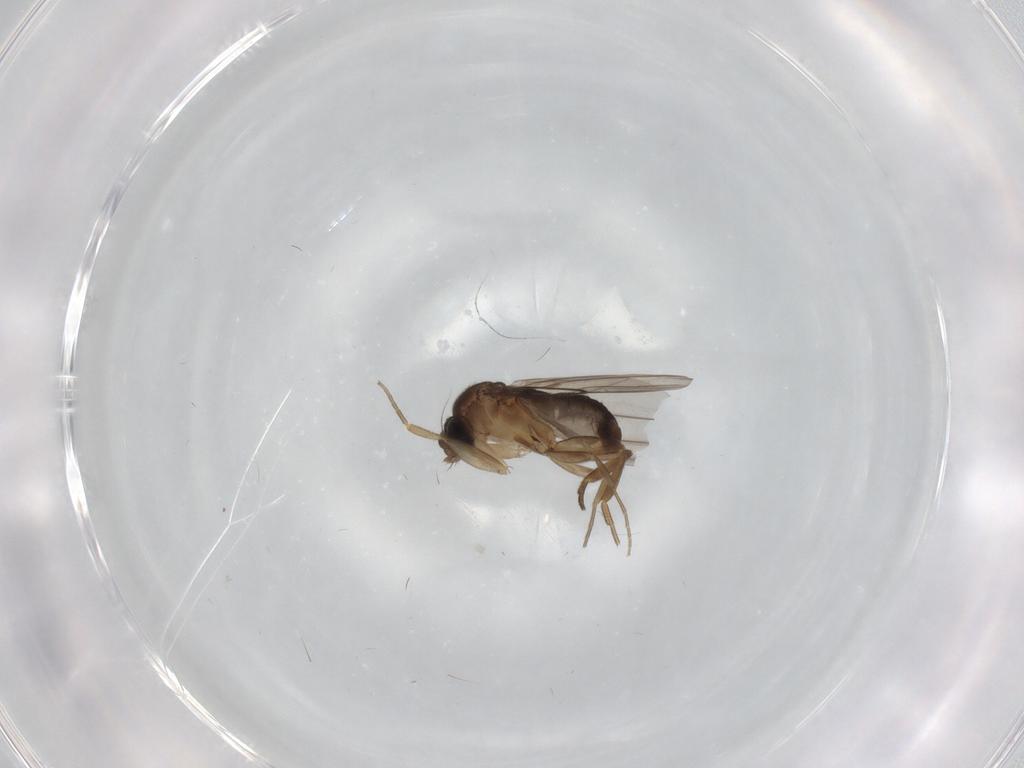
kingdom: Animalia
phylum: Arthropoda
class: Insecta
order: Diptera
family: Phoridae
